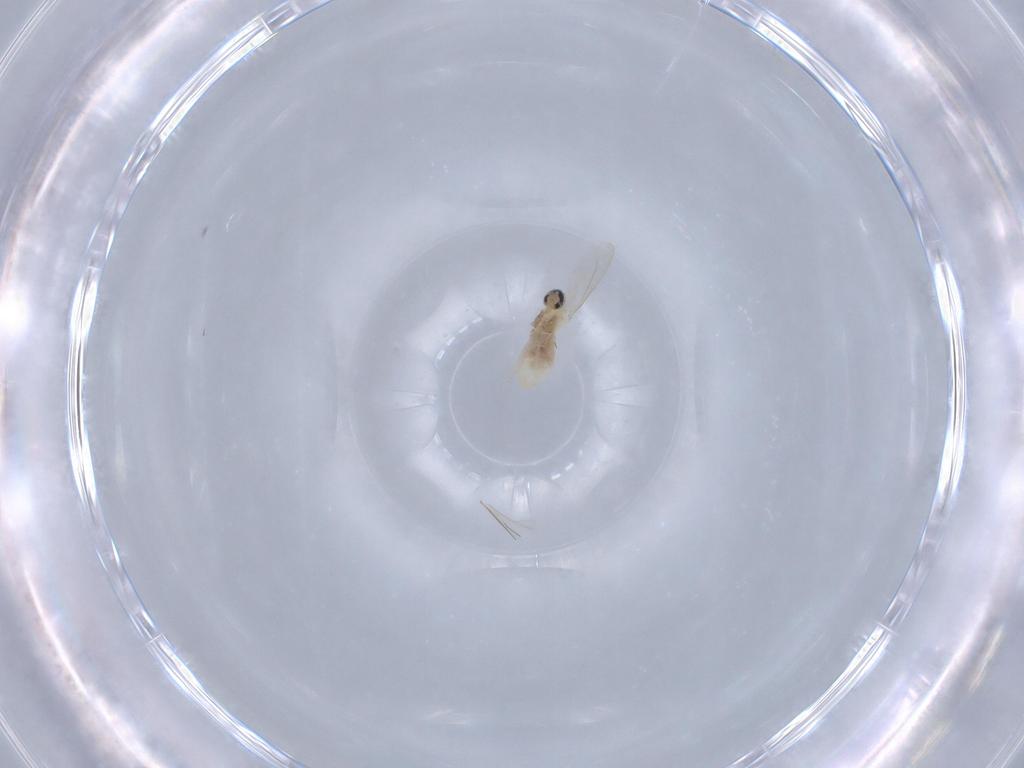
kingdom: Animalia
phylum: Arthropoda
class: Insecta
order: Diptera
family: Cecidomyiidae
